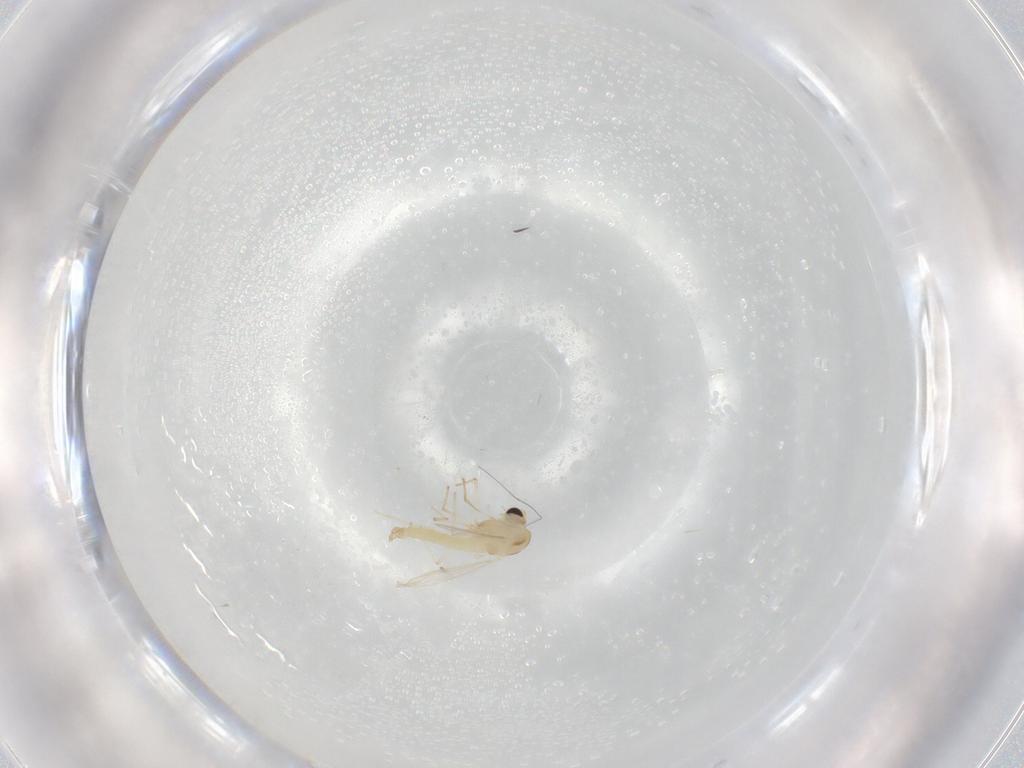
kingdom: Animalia
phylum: Arthropoda
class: Insecta
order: Diptera
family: Chironomidae
